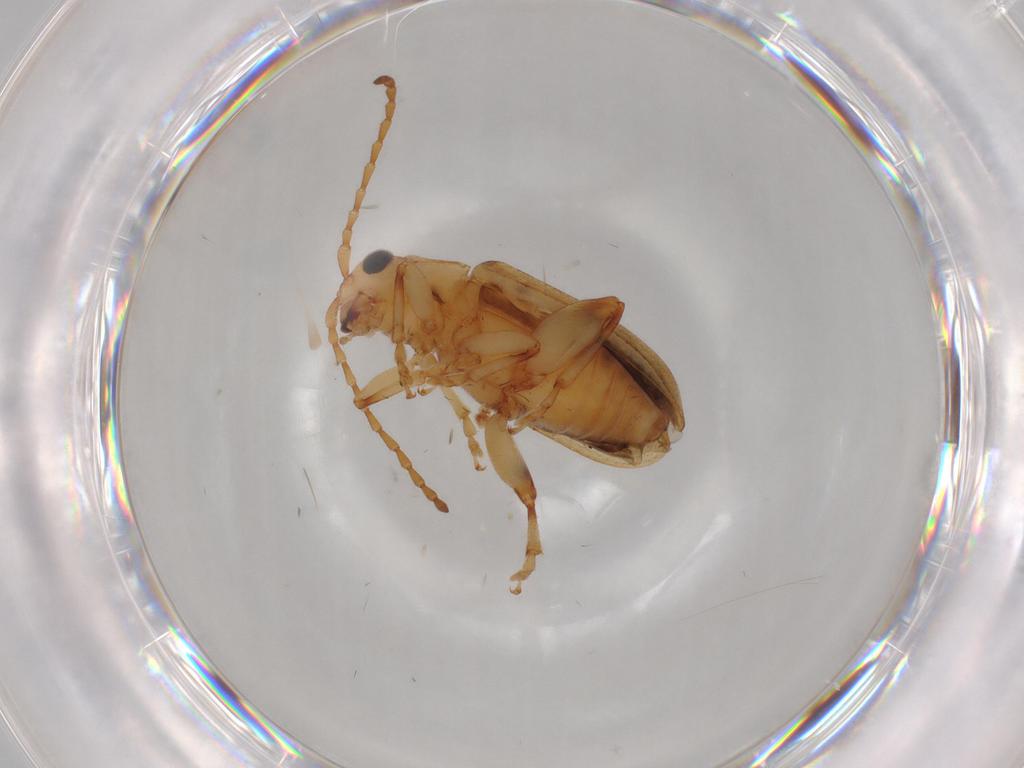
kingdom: Animalia
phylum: Arthropoda
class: Insecta
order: Coleoptera
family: Chrysomelidae
